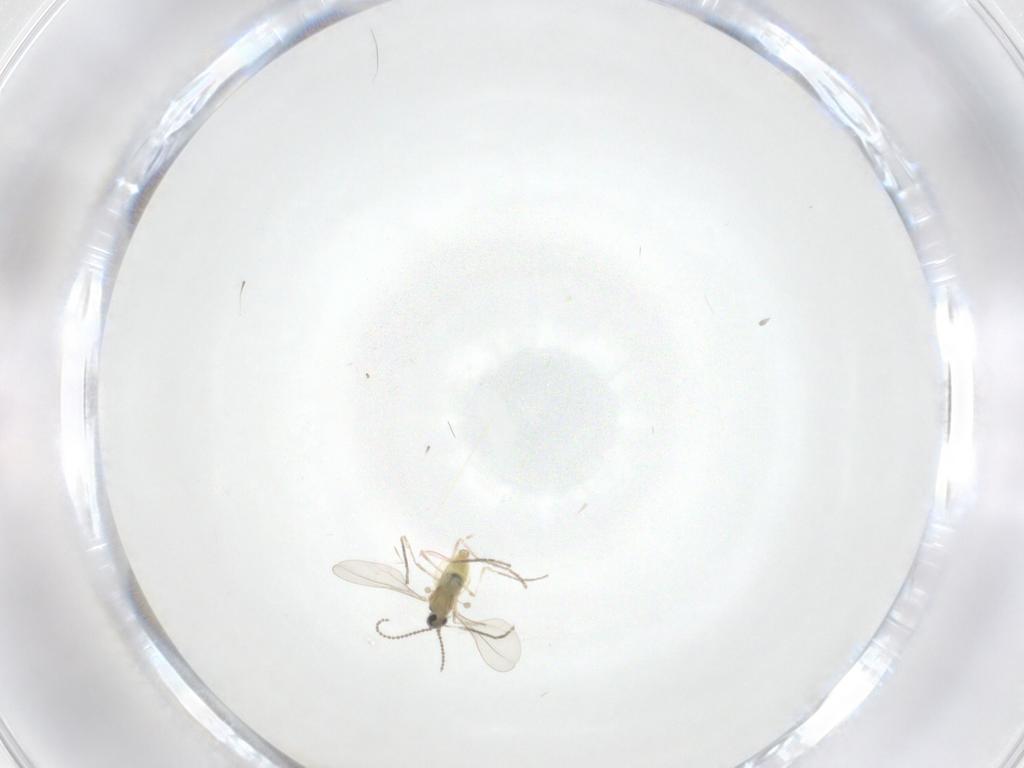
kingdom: Animalia
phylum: Arthropoda
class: Insecta
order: Diptera
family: Cecidomyiidae
